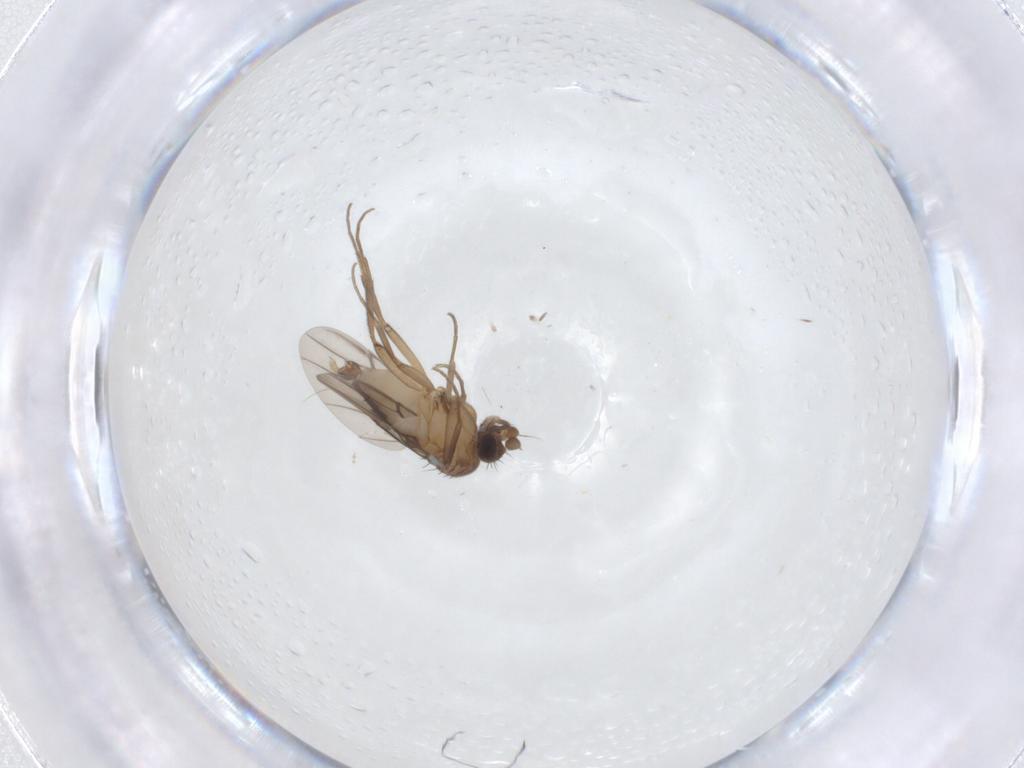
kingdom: Animalia
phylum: Arthropoda
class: Insecta
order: Diptera
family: Phoridae
